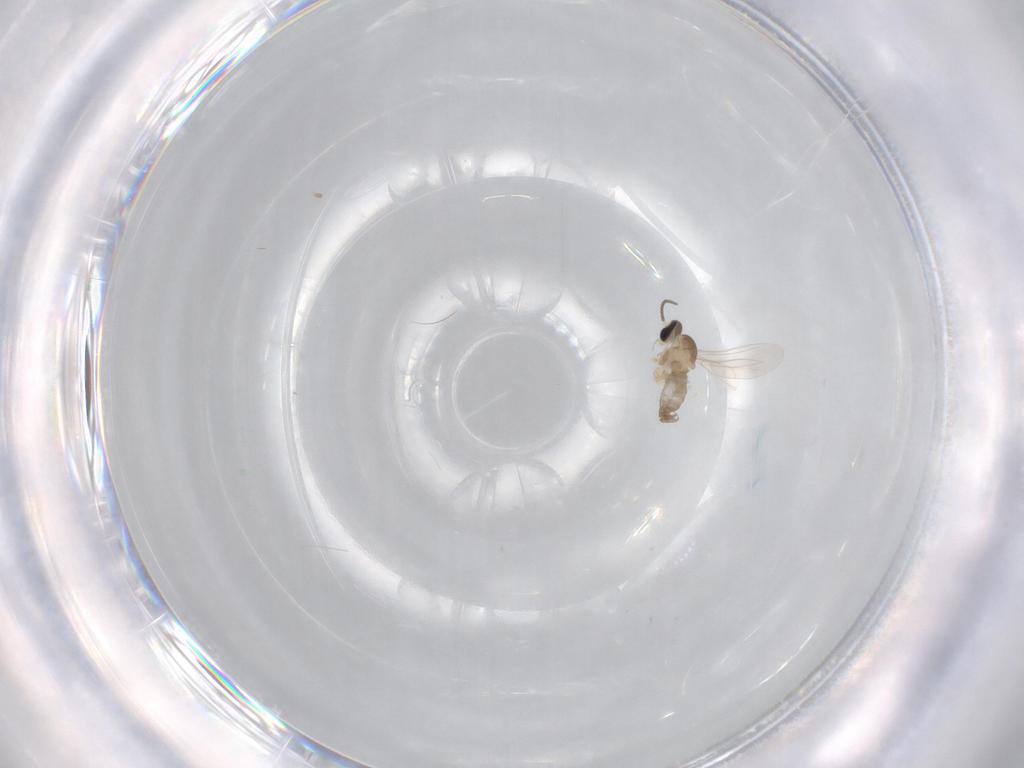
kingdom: Animalia
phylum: Arthropoda
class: Insecta
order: Diptera
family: Cecidomyiidae
